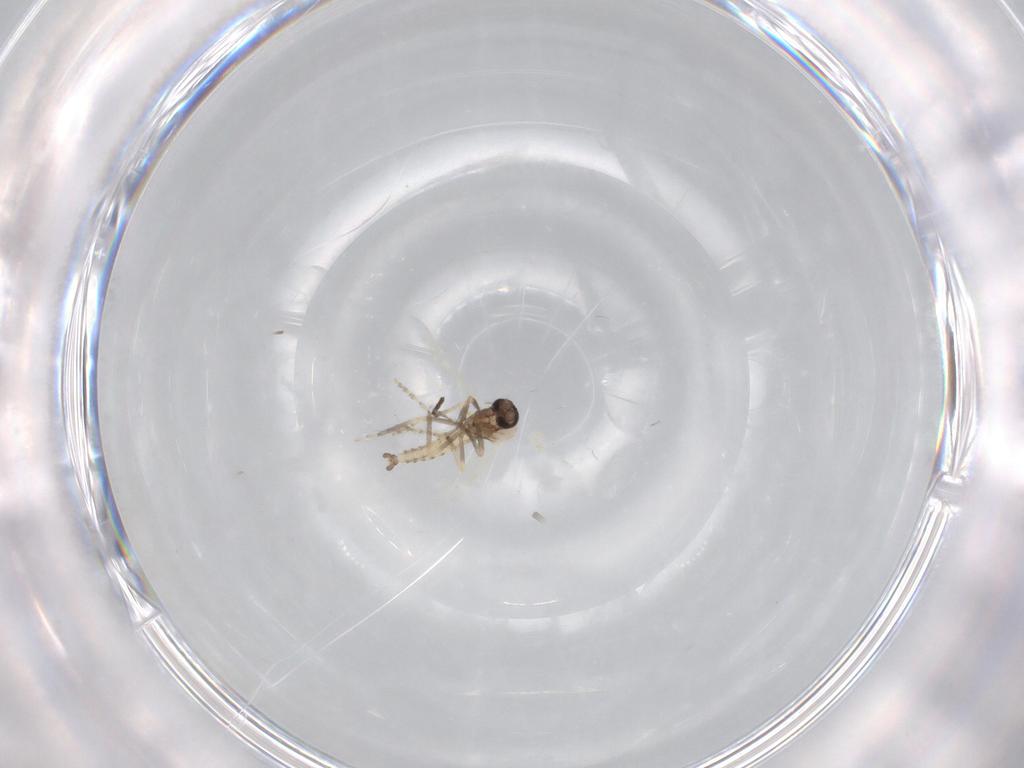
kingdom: Animalia
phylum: Arthropoda
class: Insecta
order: Diptera
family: Ceratopogonidae
